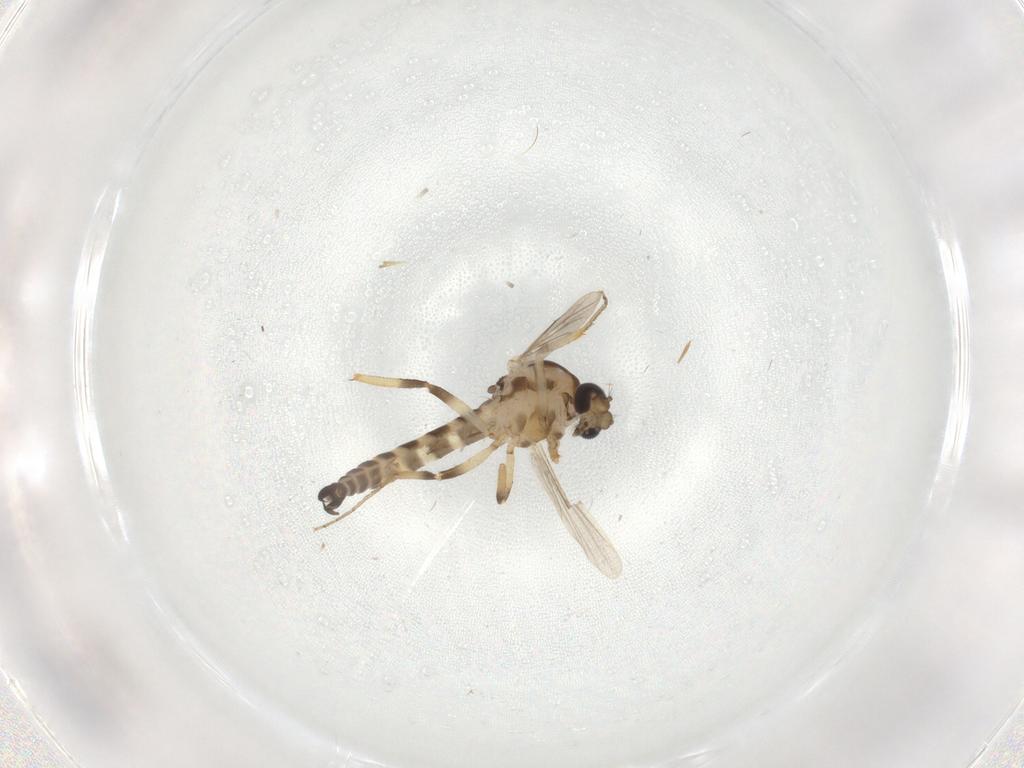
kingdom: Animalia
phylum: Arthropoda
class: Insecta
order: Diptera
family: Ceratopogonidae
